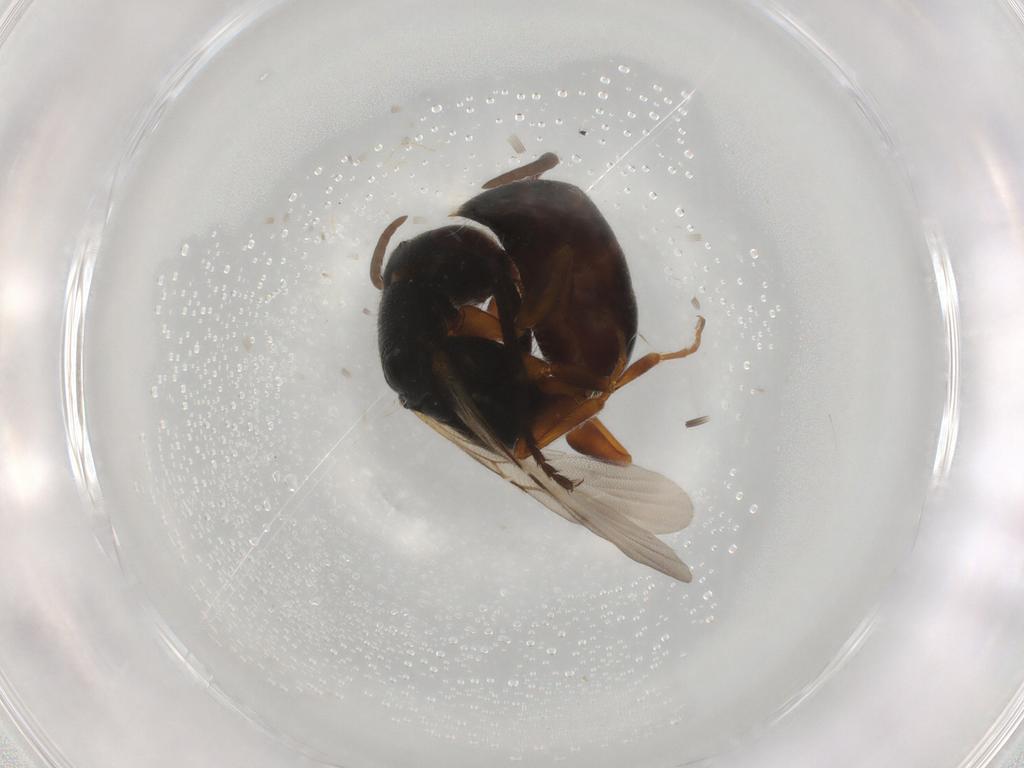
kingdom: Animalia
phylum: Arthropoda
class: Insecta
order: Hymenoptera
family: Bethylidae
